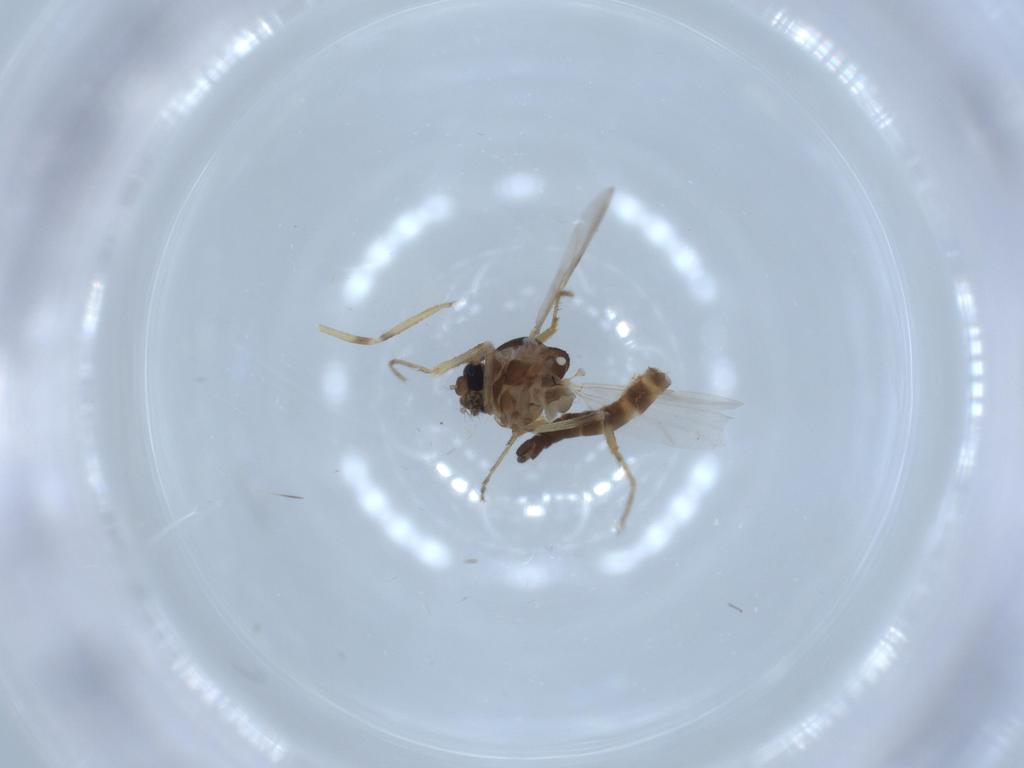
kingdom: Animalia
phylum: Arthropoda
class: Insecta
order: Diptera
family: Ceratopogonidae
